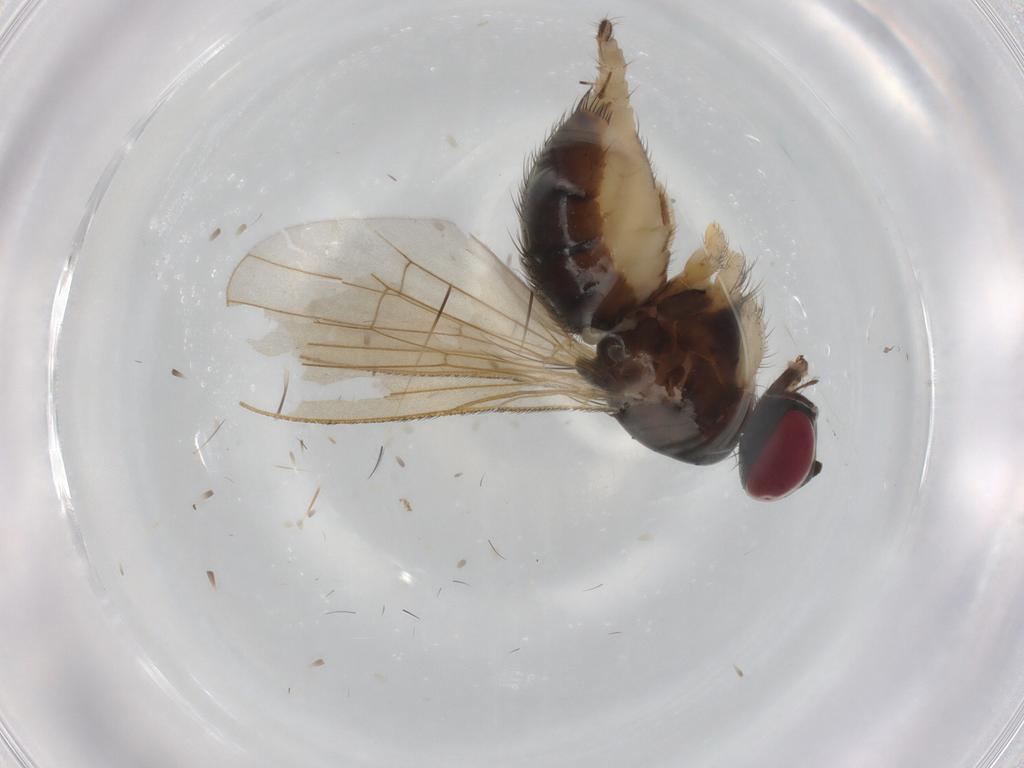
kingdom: Animalia
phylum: Arthropoda
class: Insecta
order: Diptera
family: Muscidae
